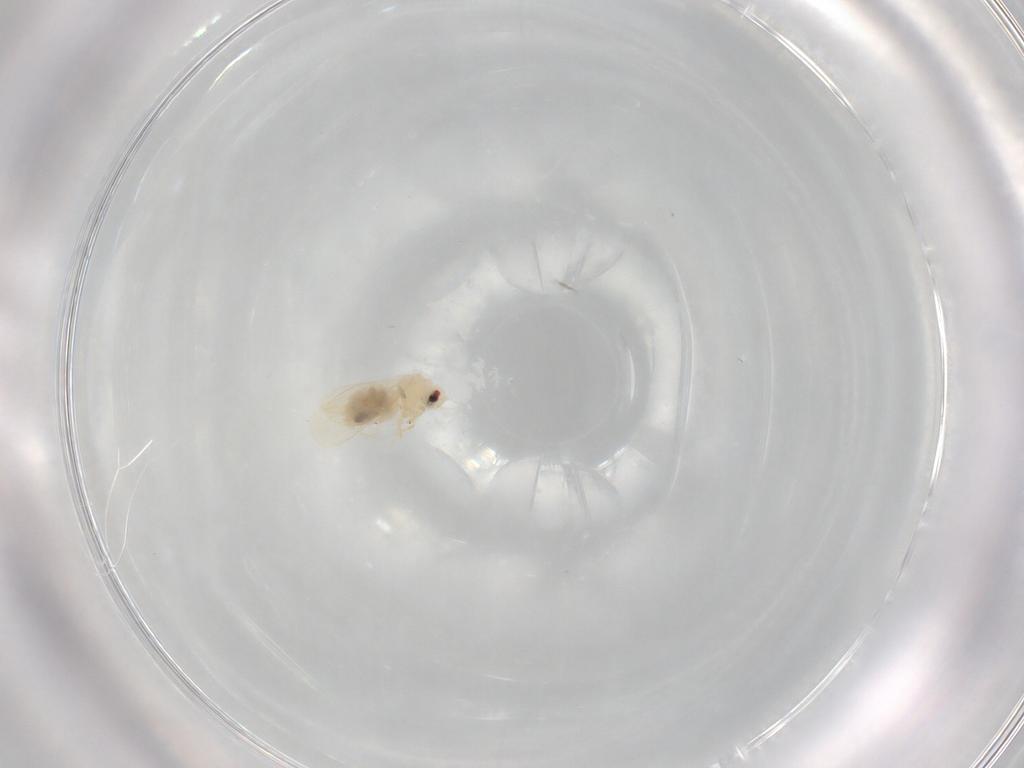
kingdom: Animalia
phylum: Arthropoda
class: Insecta
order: Hemiptera
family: Aleyrodidae
